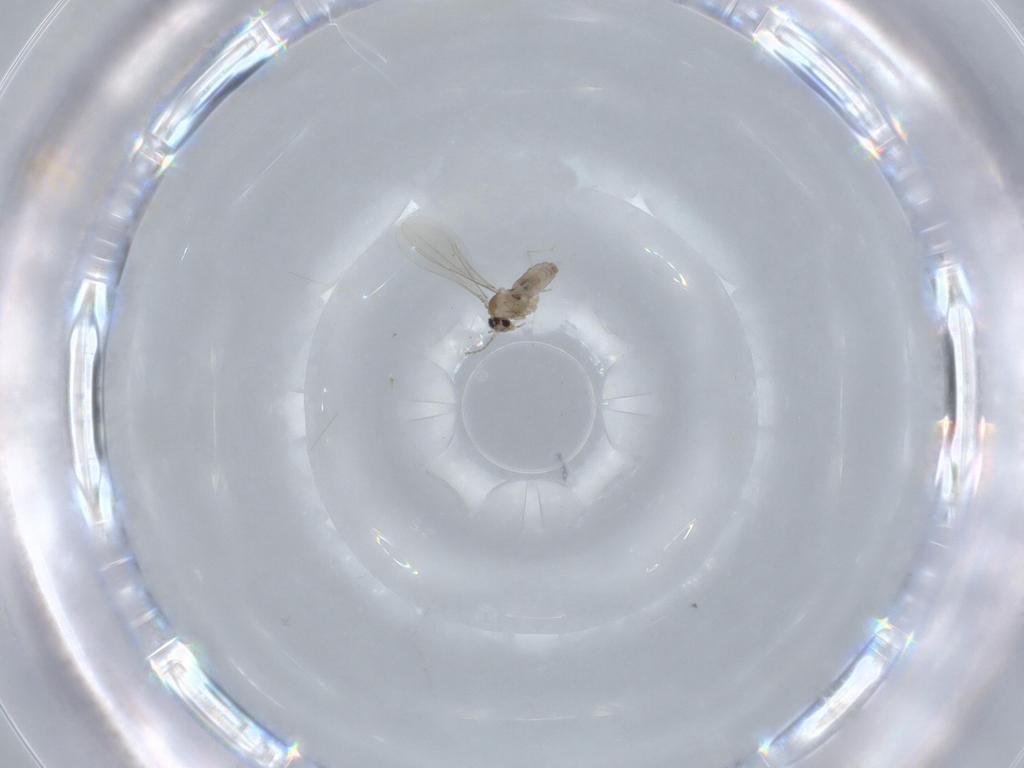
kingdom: Animalia
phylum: Arthropoda
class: Insecta
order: Diptera
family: Cecidomyiidae
